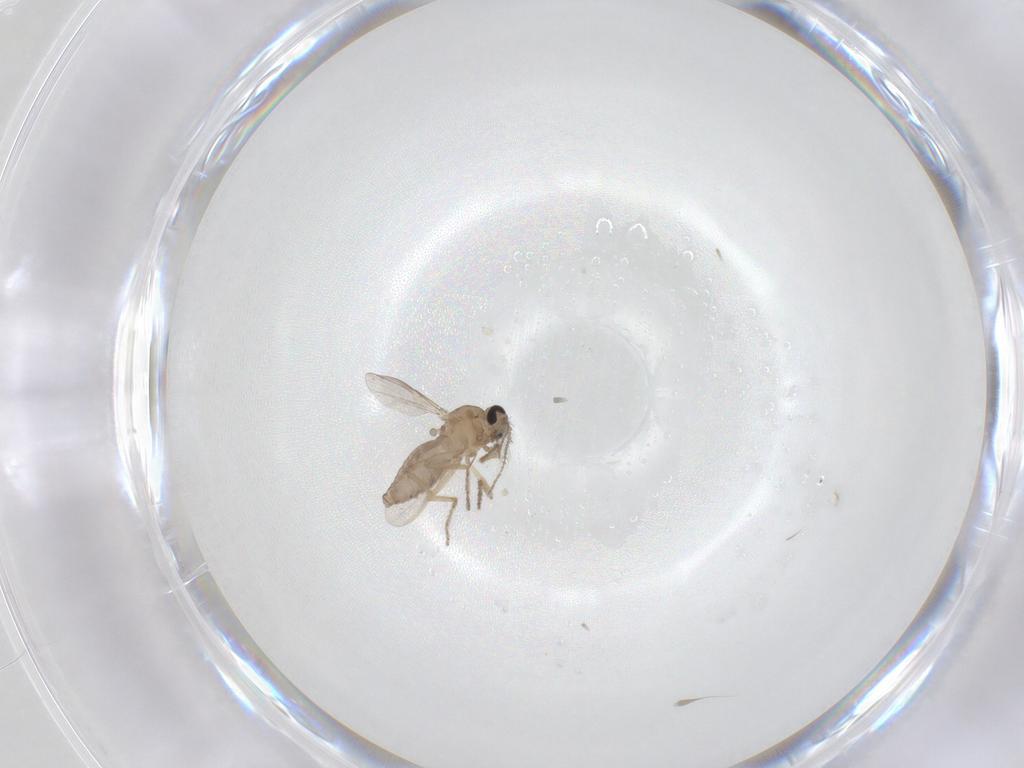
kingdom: Animalia
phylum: Arthropoda
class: Insecta
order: Diptera
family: Ceratopogonidae
